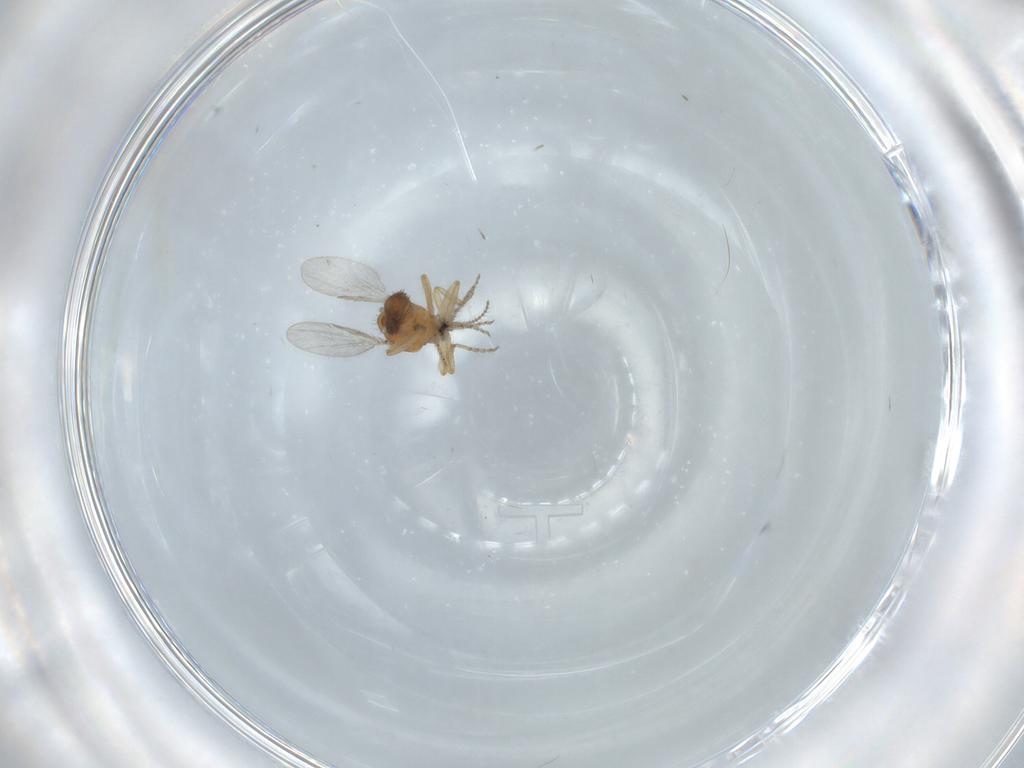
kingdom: Animalia
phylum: Arthropoda
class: Insecta
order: Diptera
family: Ceratopogonidae
